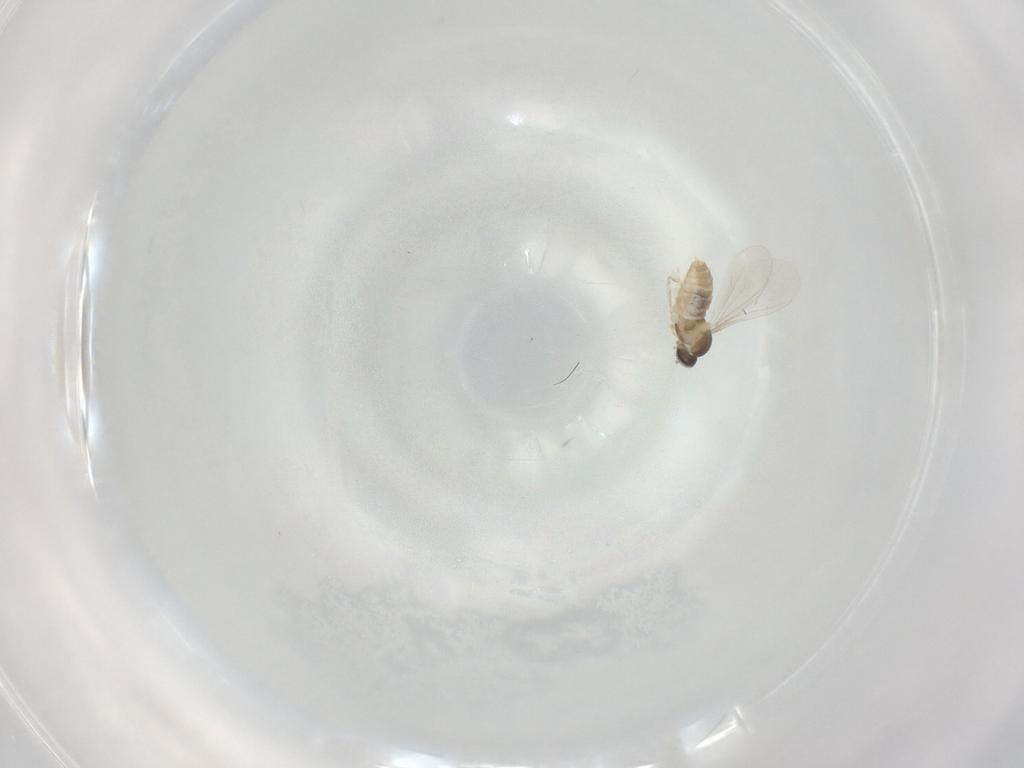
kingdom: Animalia
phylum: Arthropoda
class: Insecta
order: Diptera
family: Cecidomyiidae
